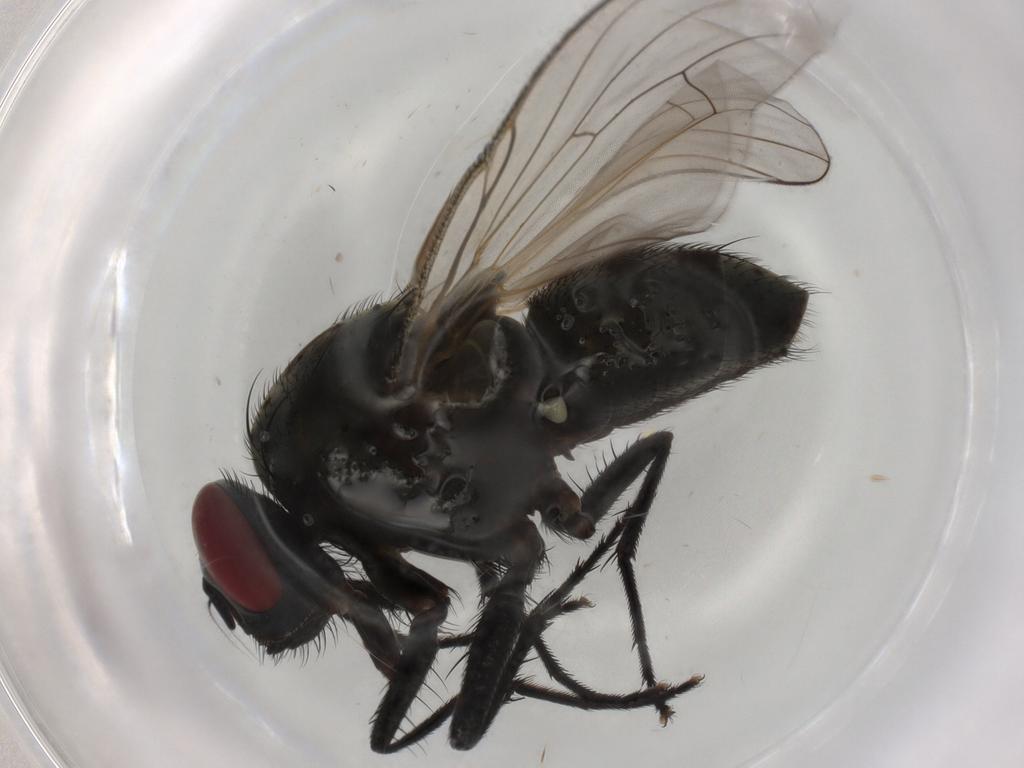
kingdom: Animalia
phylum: Arthropoda
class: Insecta
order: Diptera
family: Muscidae
